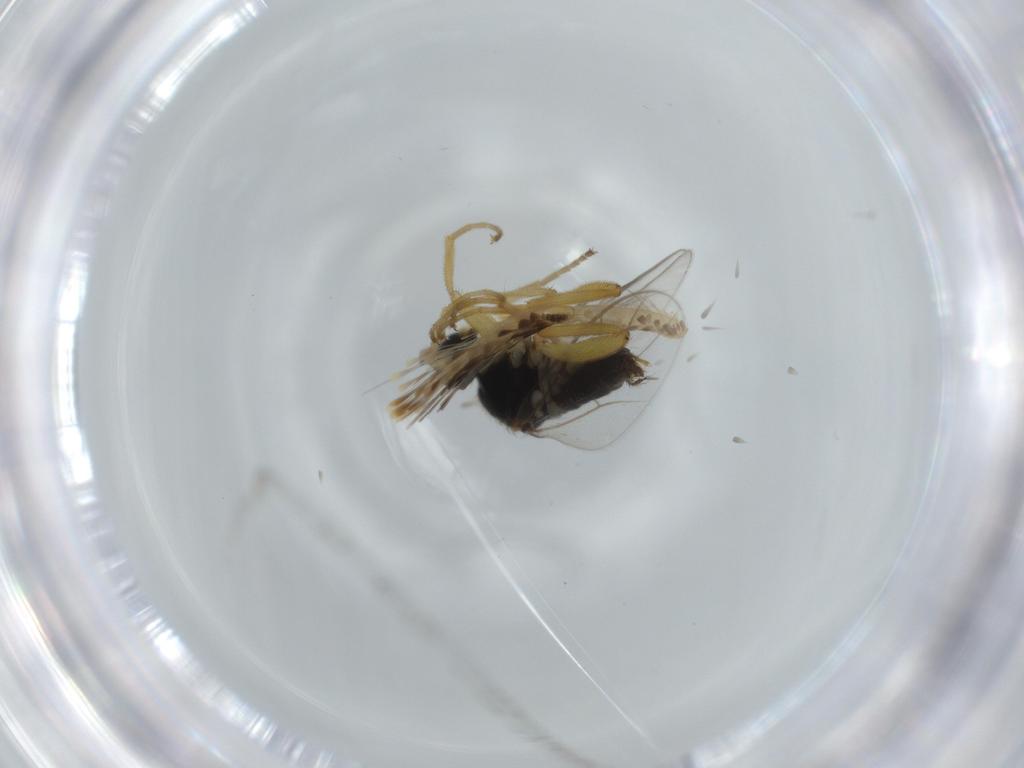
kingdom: Animalia
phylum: Arthropoda
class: Insecta
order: Diptera
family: Hybotidae
